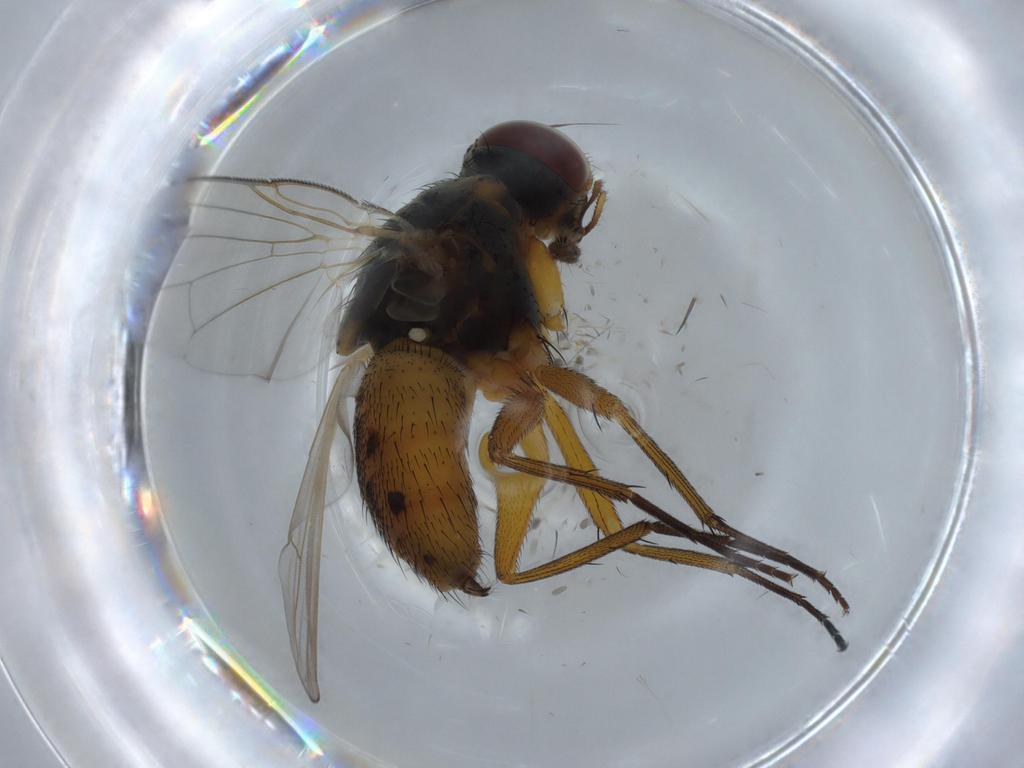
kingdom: Animalia
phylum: Arthropoda
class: Insecta
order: Diptera
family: Muscidae
